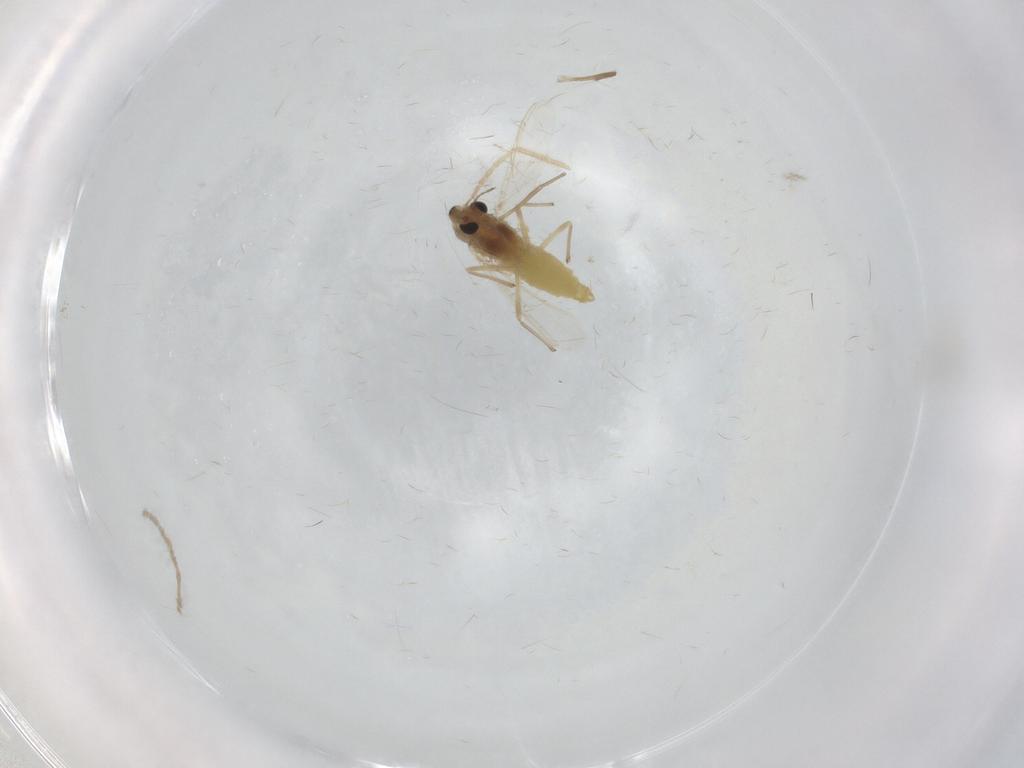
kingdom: Animalia
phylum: Arthropoda
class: Insecta
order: Diptera
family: Chironomidae
